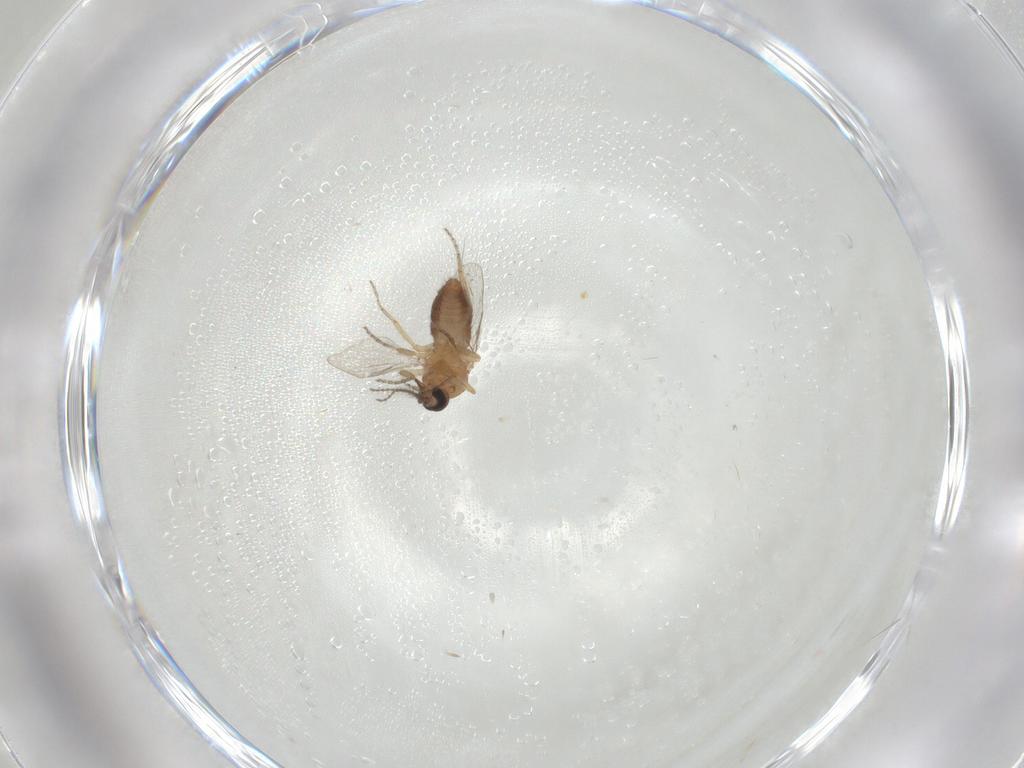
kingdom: Animalia
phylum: Arthropoda
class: Insecta
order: Diptera
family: Ceratopogonidae
